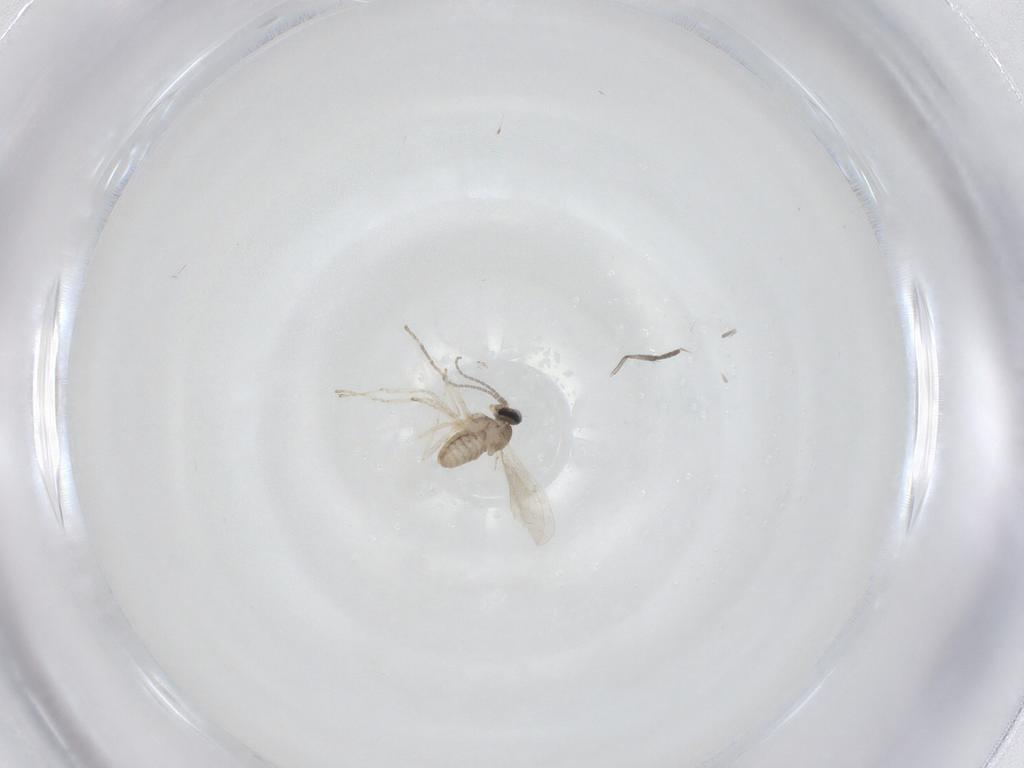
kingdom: Animalia
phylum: Arthropoda
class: Insecta
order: Diptera
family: Cecidomyiidae
